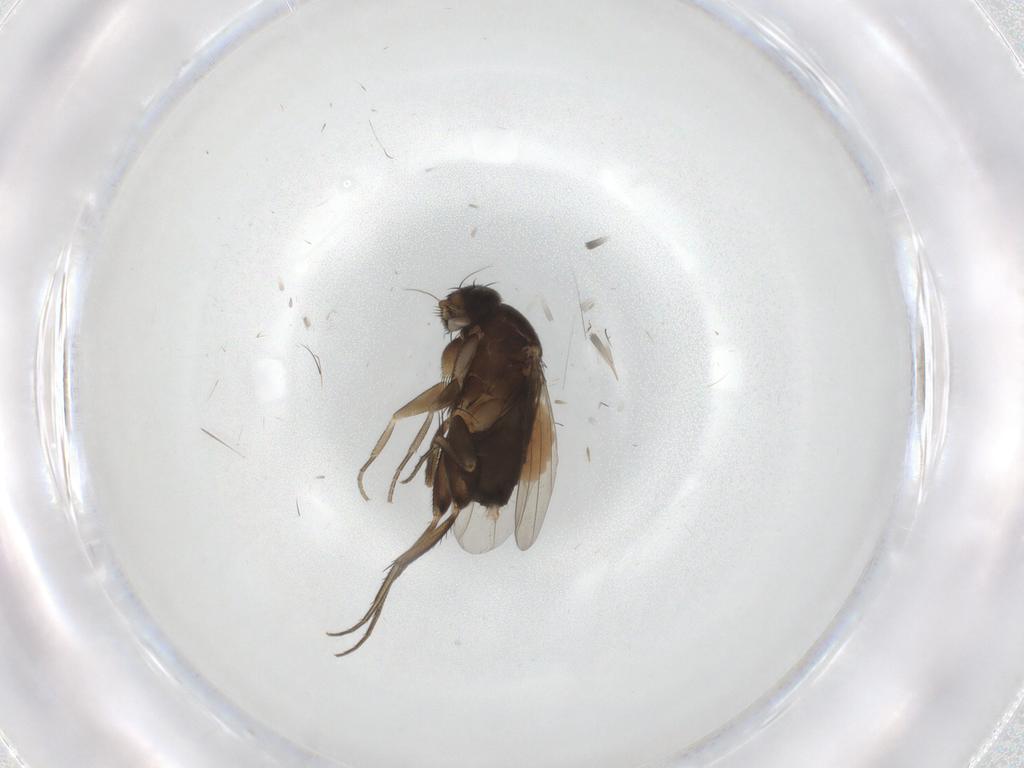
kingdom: Animalia
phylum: Arthropoda
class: Insecta
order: Diptera
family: Phoridae
